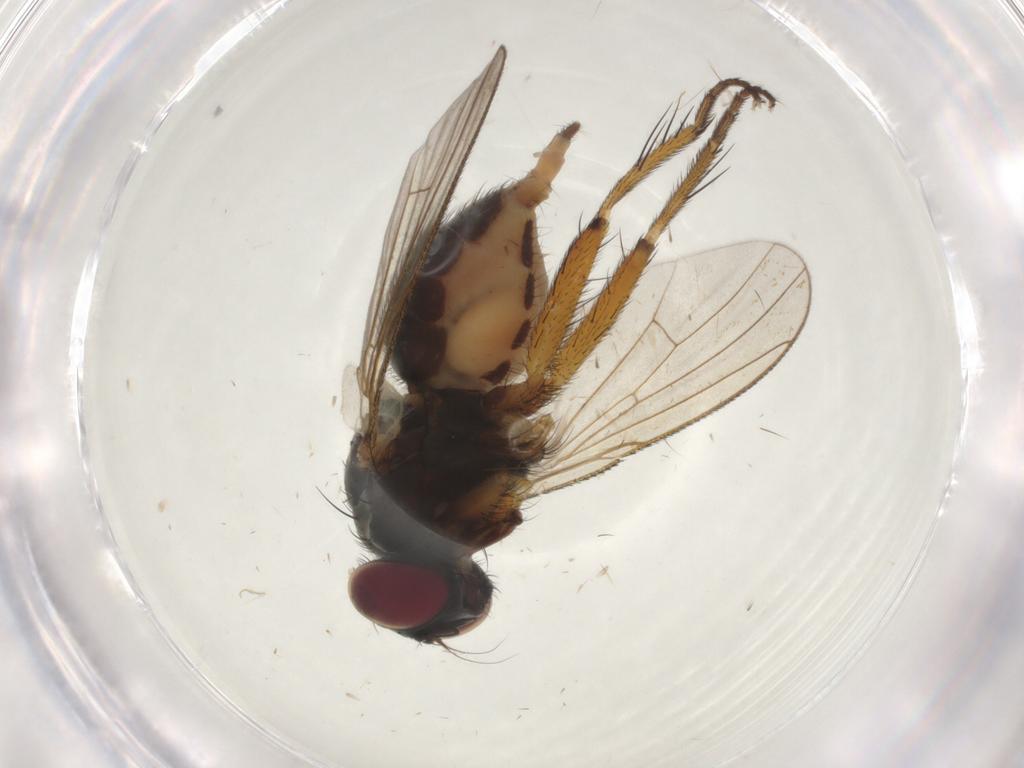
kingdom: Animalia
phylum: Arthropoda
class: Insecta
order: Diptera
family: Muscidae
